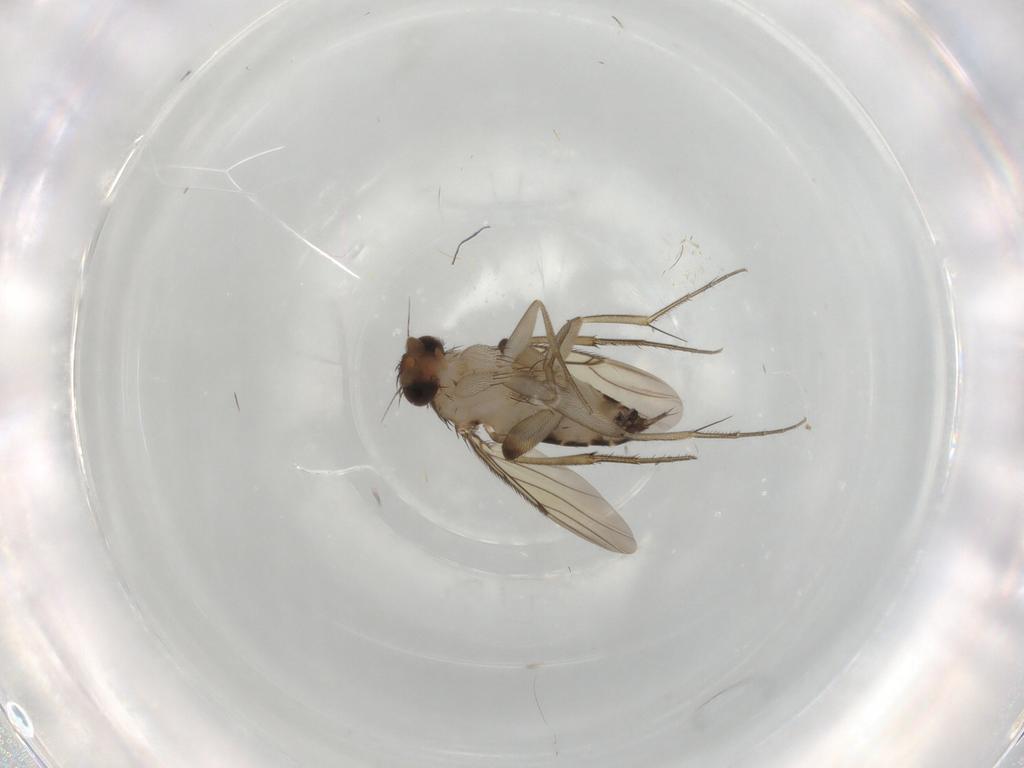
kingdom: Animalia
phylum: Arthropoda
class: Insecta
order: Diptera
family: Phoridae
